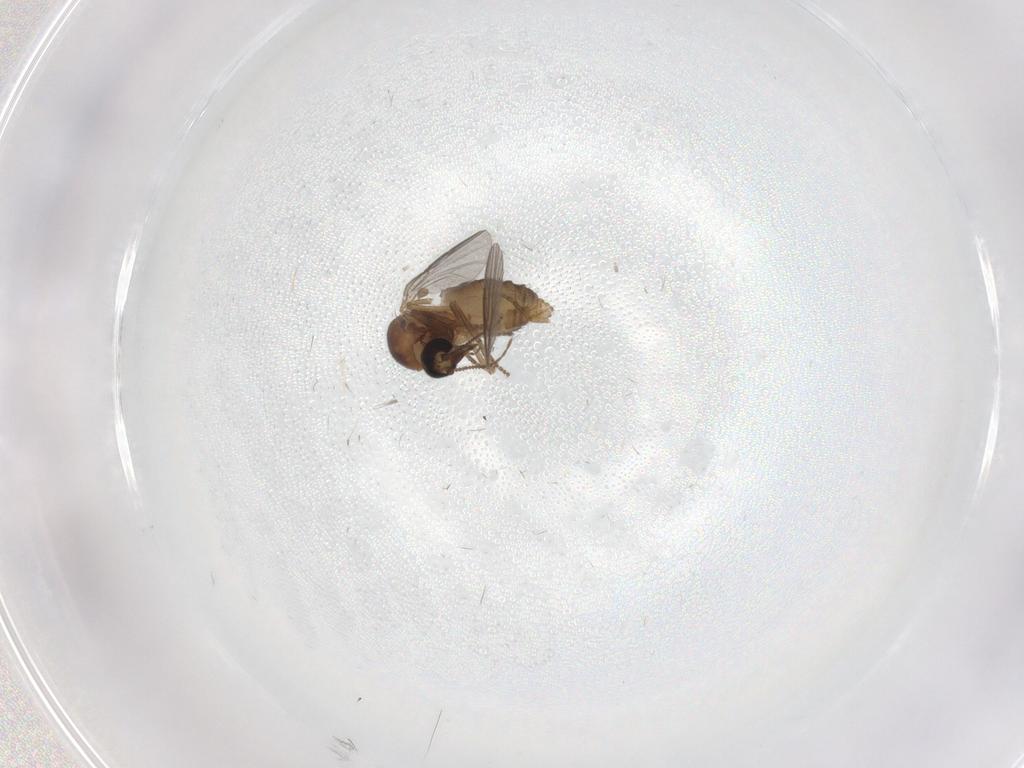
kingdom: Animalia
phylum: Arthropoda
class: Insecta
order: Diptera
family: Ceratopogonidae
